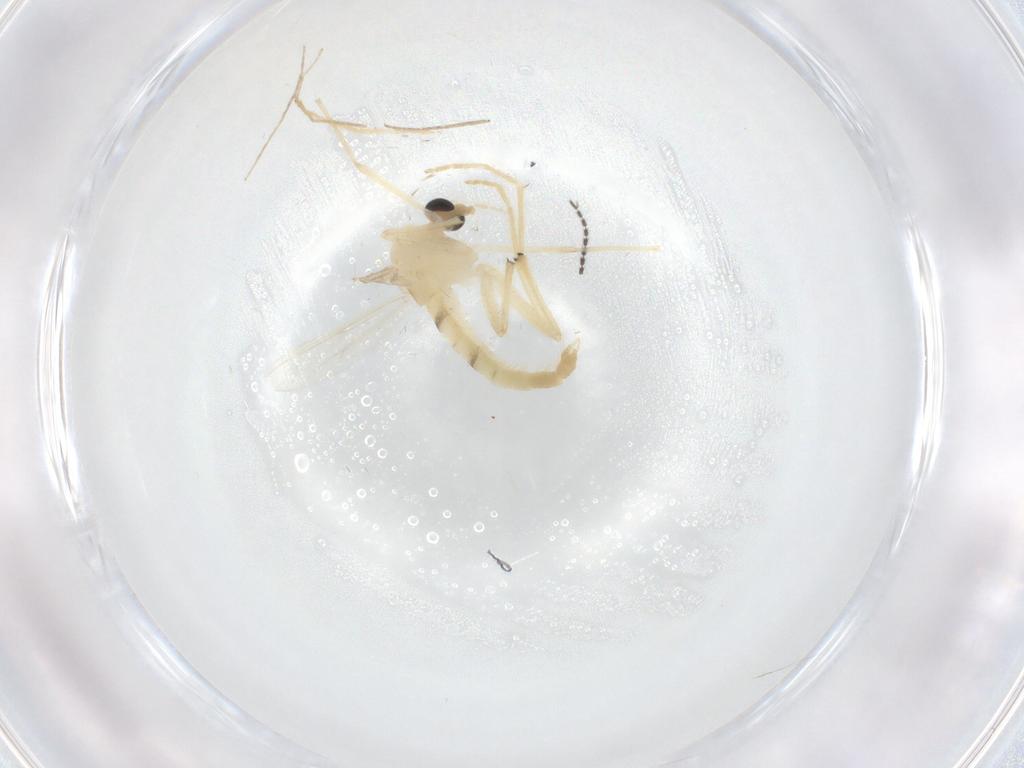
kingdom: Animalia
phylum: Arthropoda
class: Insecta
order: Diptera
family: Chironomidae
